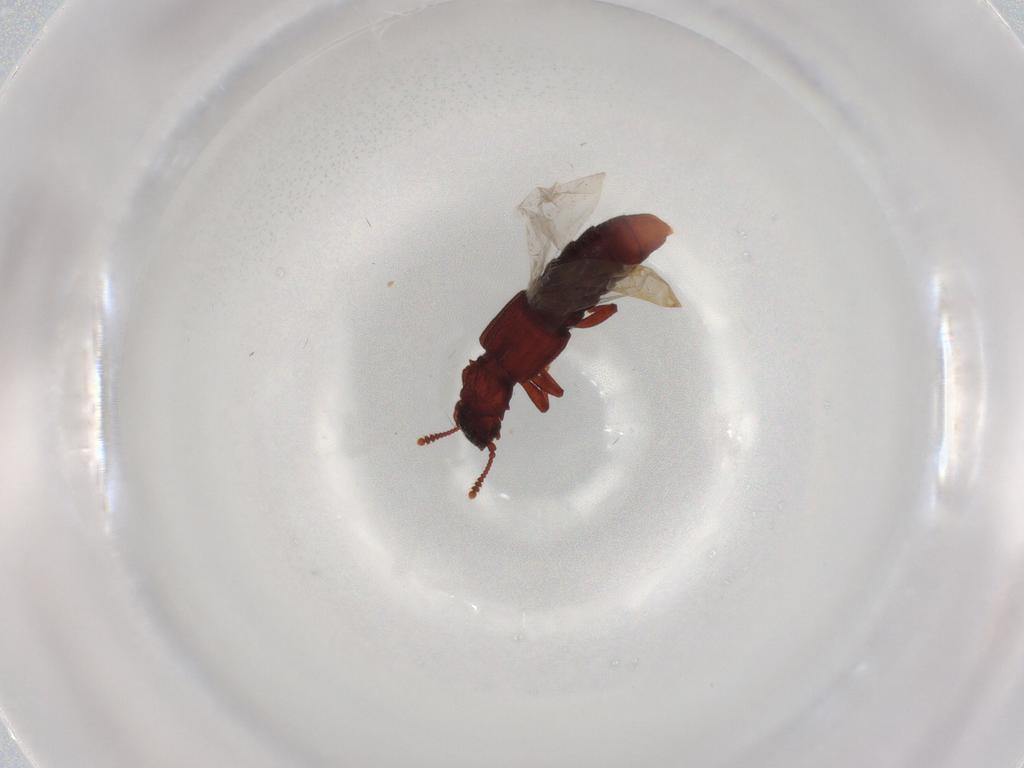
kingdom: Animalia
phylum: Arthropoda
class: Insecta
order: Coleoptera
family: Curculionidae
